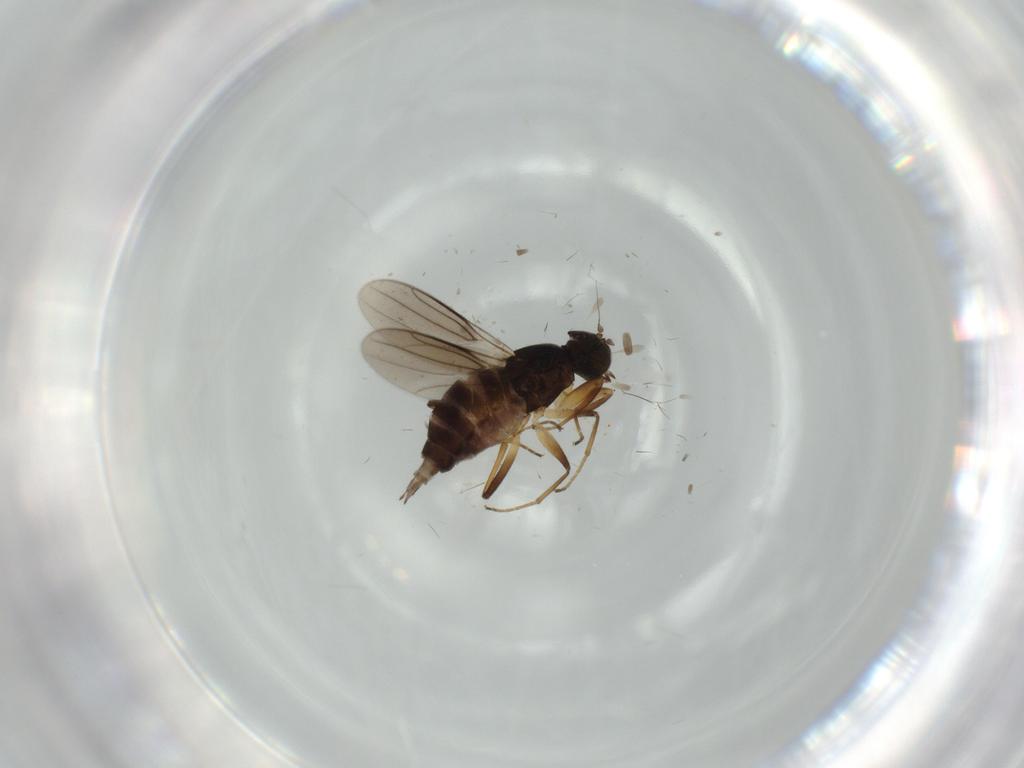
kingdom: Animalia
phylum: Arthropoda
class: Insecta
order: Diptera
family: Hybotidae
